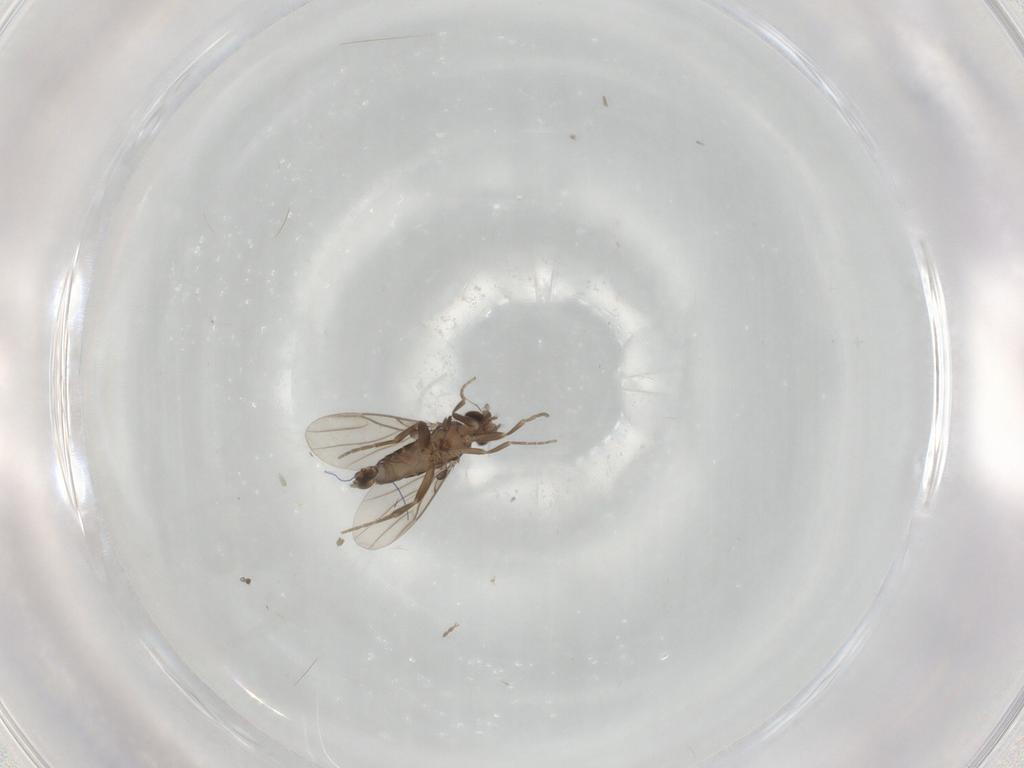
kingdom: Animalia
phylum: Arthropoda
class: Insecta
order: Diptera
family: Phoridae
